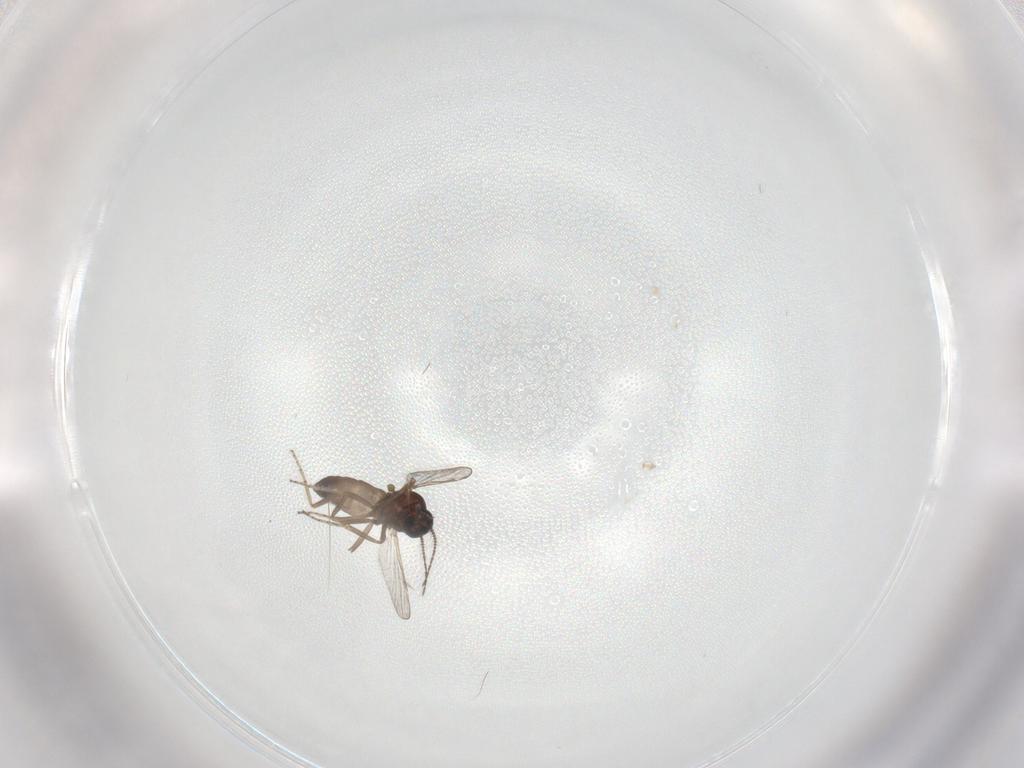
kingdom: Animalia
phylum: Arthropoda
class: Insecta
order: Diptera
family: Ceratopogonidae
